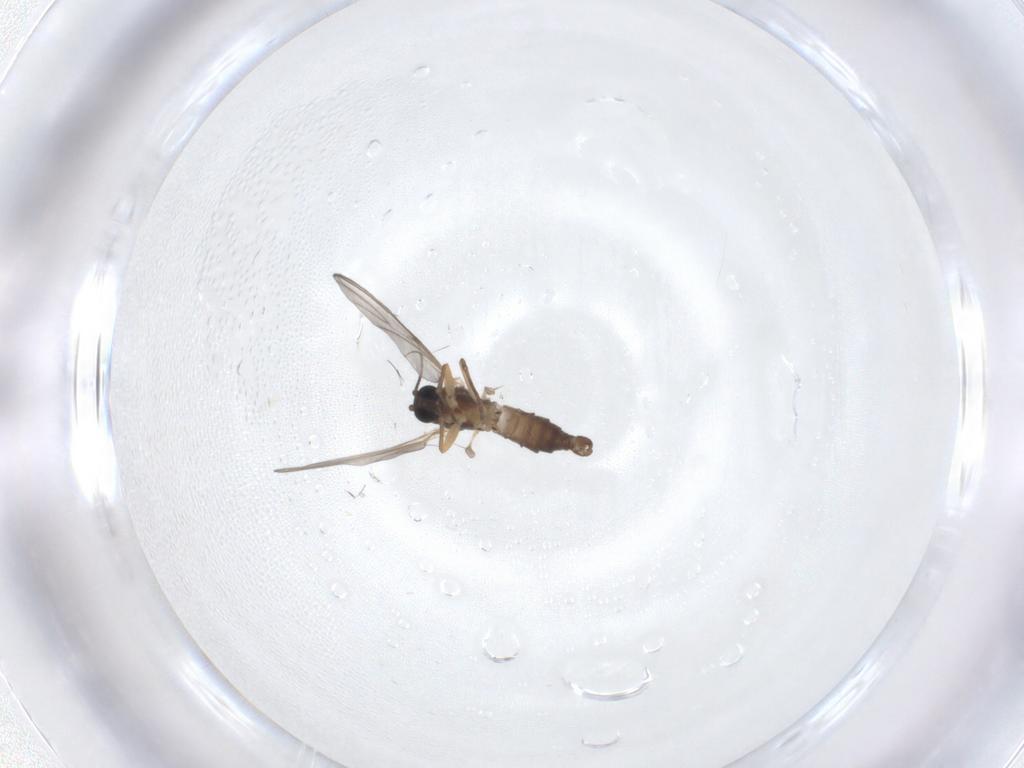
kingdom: Animalia
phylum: Arthropoda
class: Insecta
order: Diptera
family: Sciaridae
